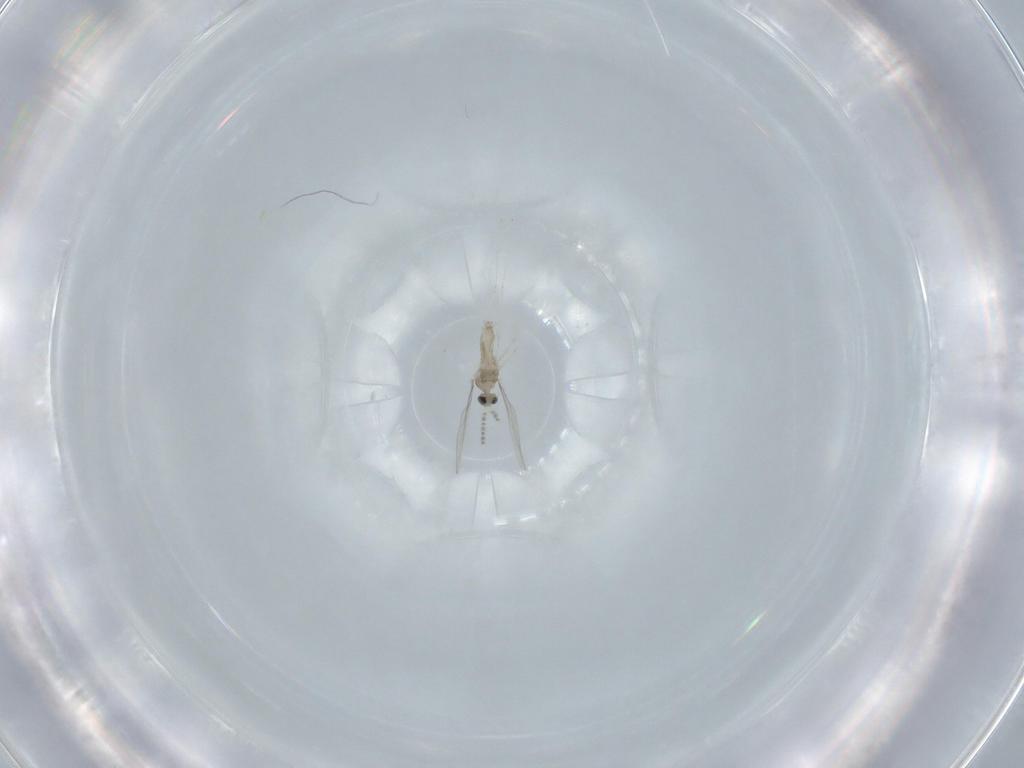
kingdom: Animalia
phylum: Arthropoda
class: Insecta
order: Diptera
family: Cecidomyiidae
